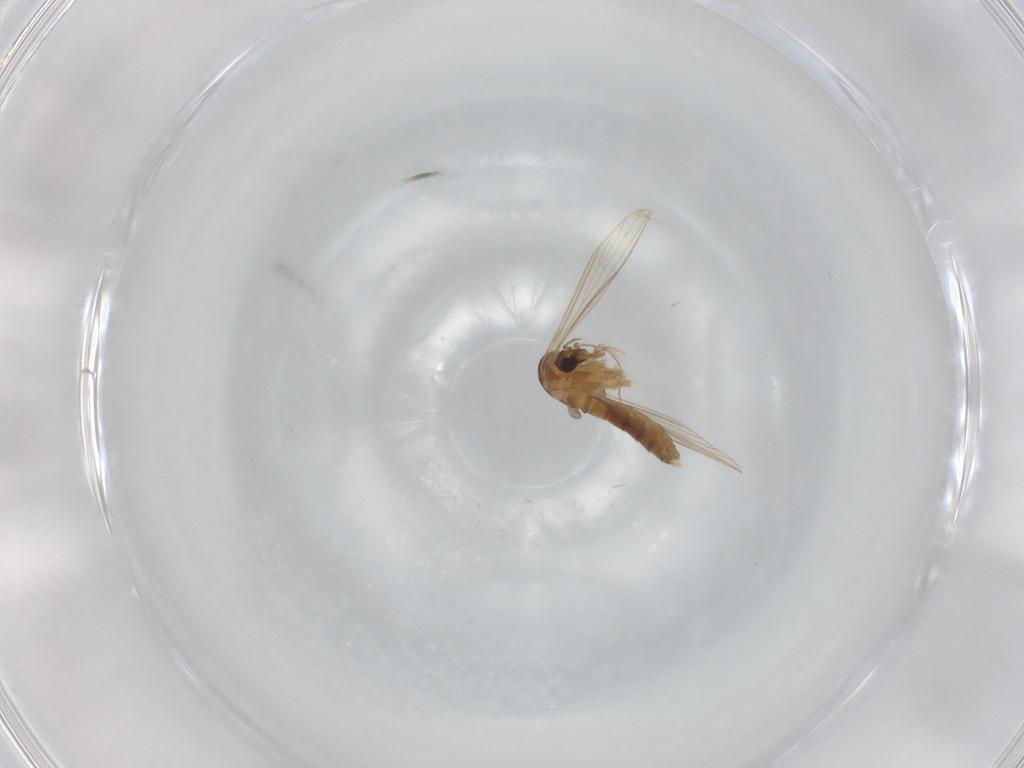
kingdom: Animalia
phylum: Arthropoda
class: Insecta
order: Diptera
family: Psychodidae
